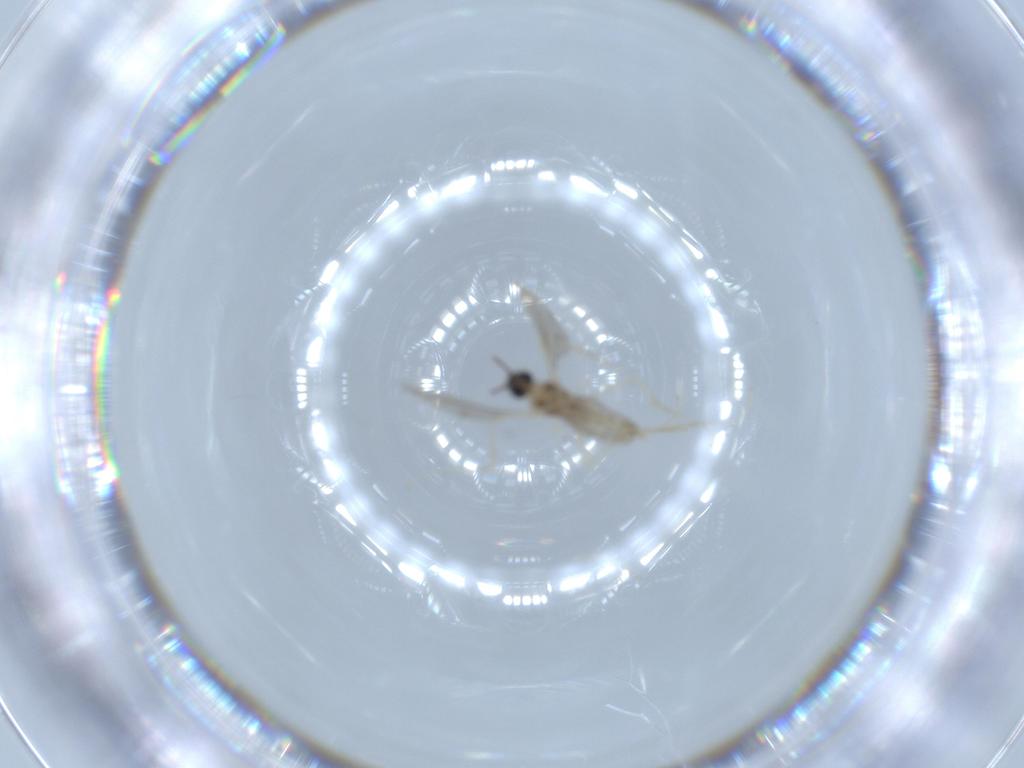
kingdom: Animalia
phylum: Arthropoda
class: Insecta
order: Diptera
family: Cecidomyiidae
